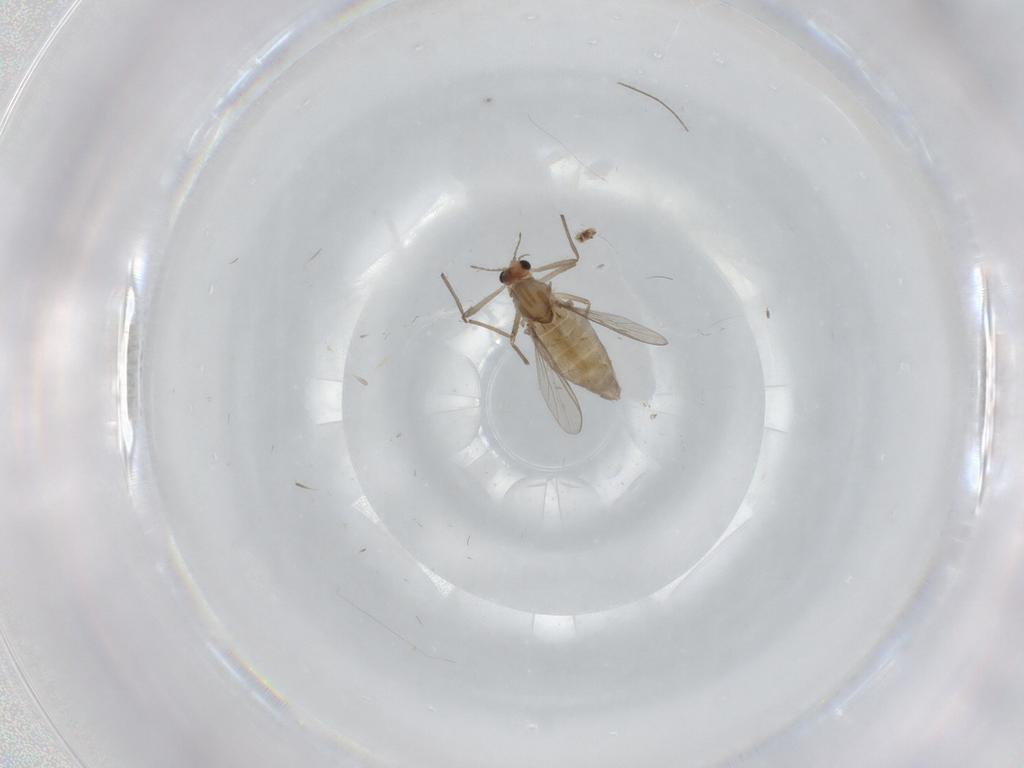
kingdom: Animalia
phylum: Arthropoda
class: Insecta
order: Diptera
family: Chironomidae
